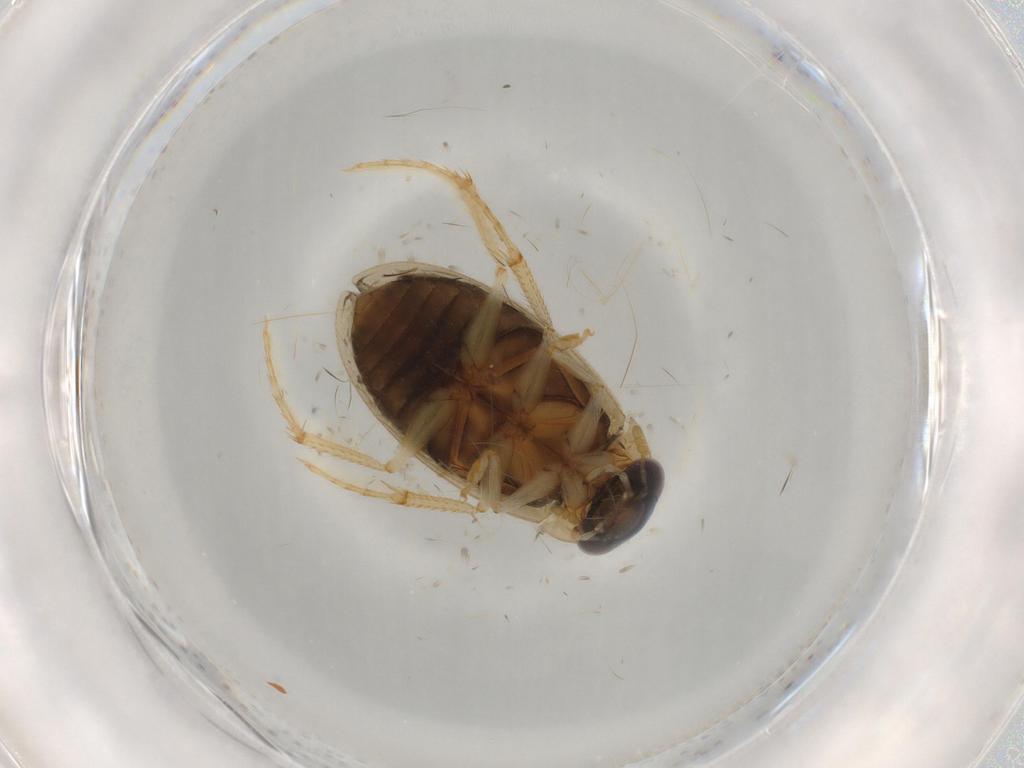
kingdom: Animalia
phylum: Arthropoda
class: Insecta
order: Coleoptera
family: Hydrophilidae
